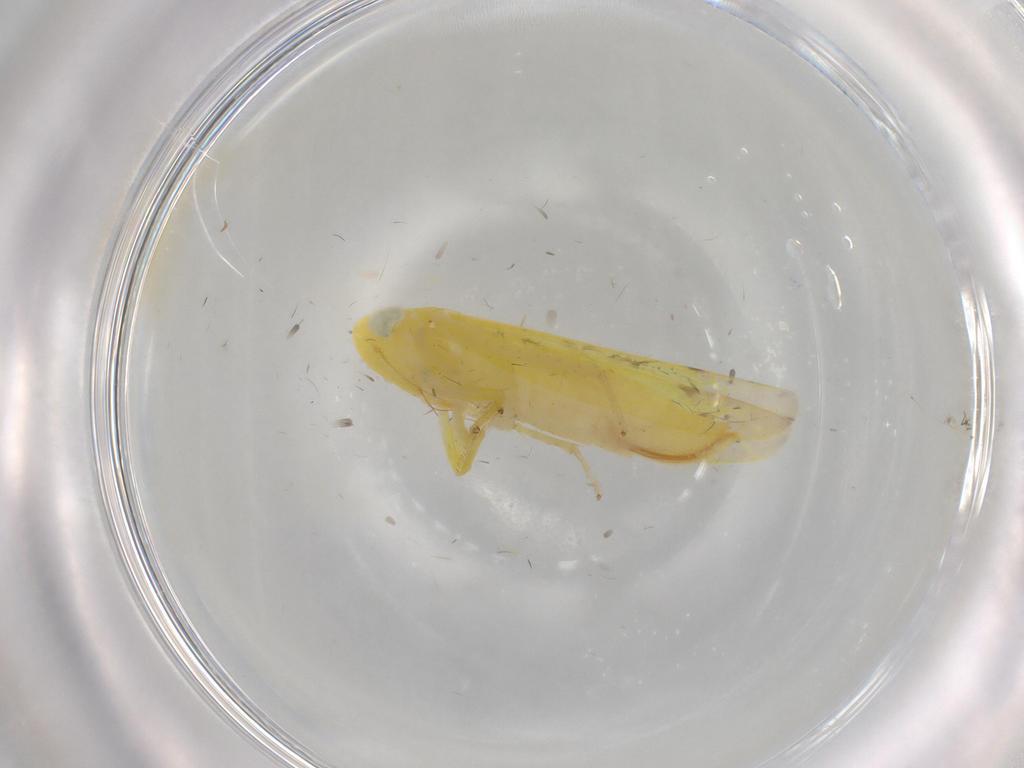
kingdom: Animalia
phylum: Arthropoda
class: Insecta
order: Hemiptera
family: Cicadellidae
